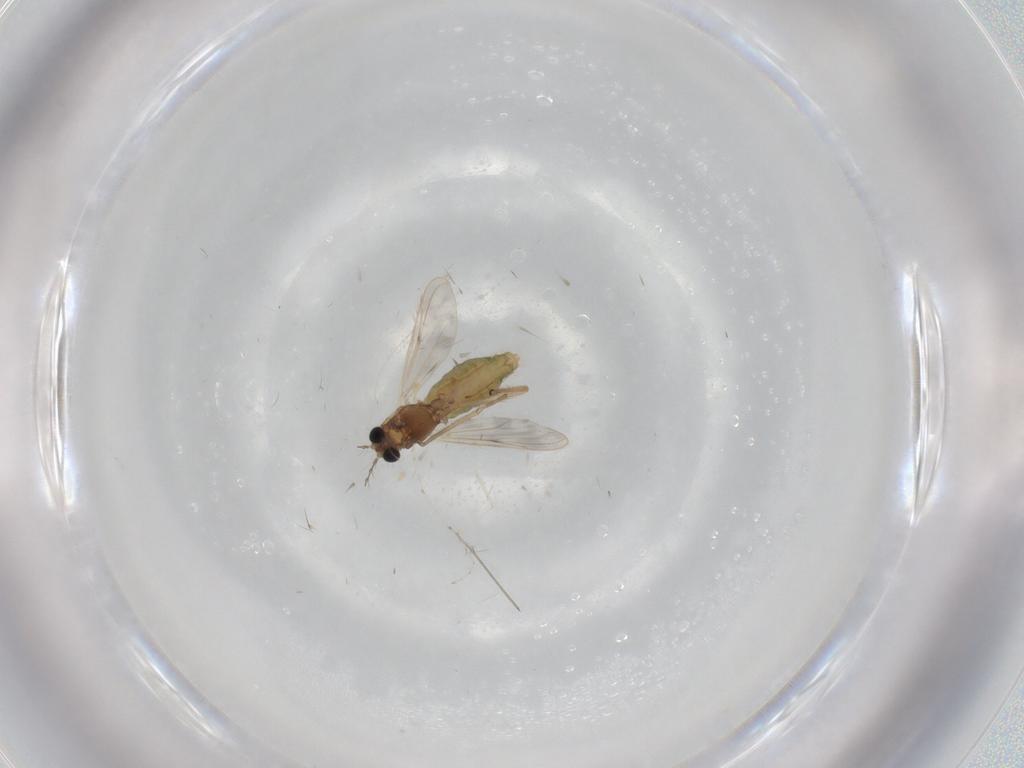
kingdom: Animalia
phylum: Arthropoda
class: Insecta
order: Diptera
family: Chironomidae
